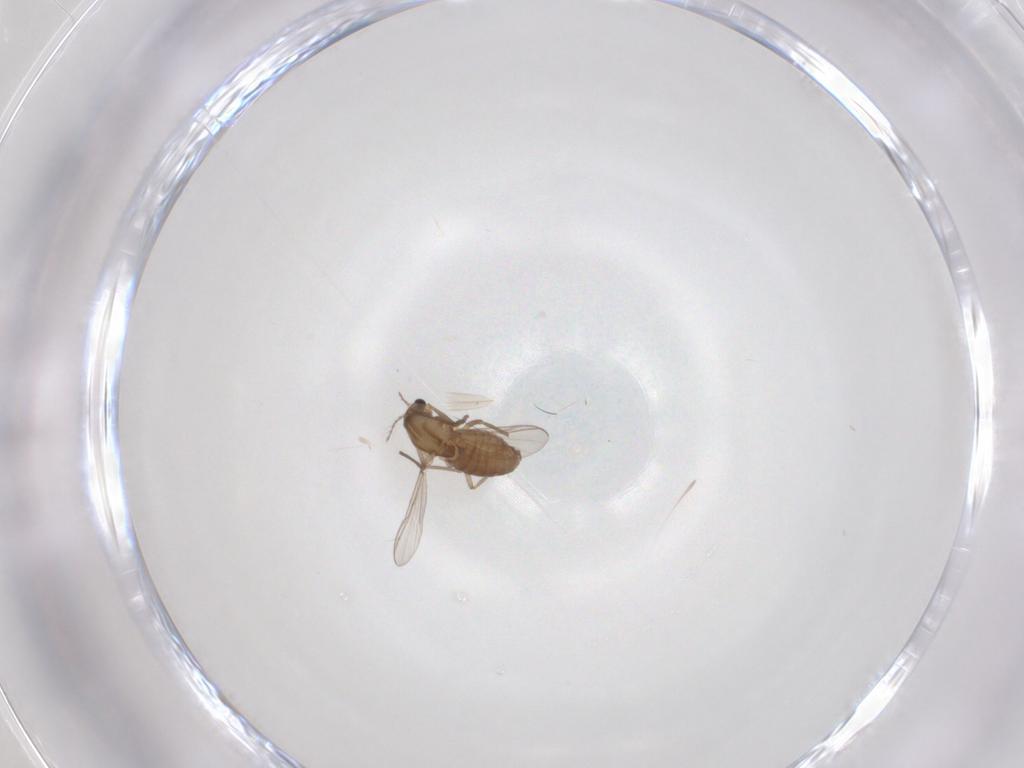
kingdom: Animalia
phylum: Arthropoda
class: Insecta
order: Diptera
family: Chironomidae
